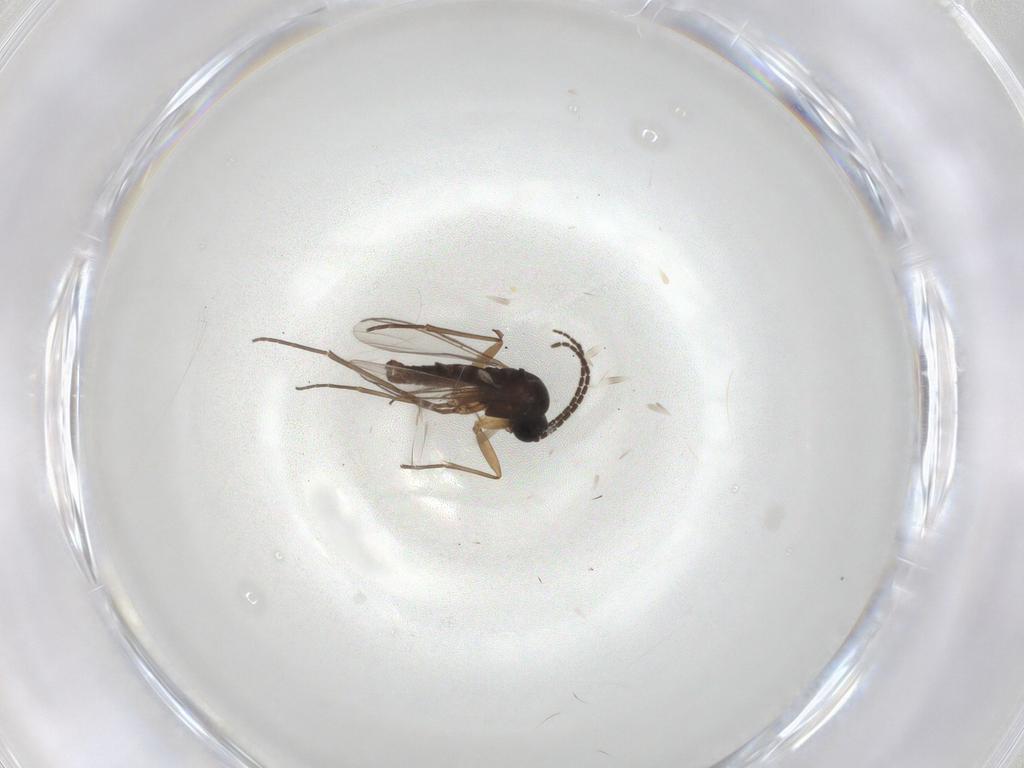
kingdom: Animalia
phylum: Arthropoda
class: Insecta
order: Diptera
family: Sciaridae
